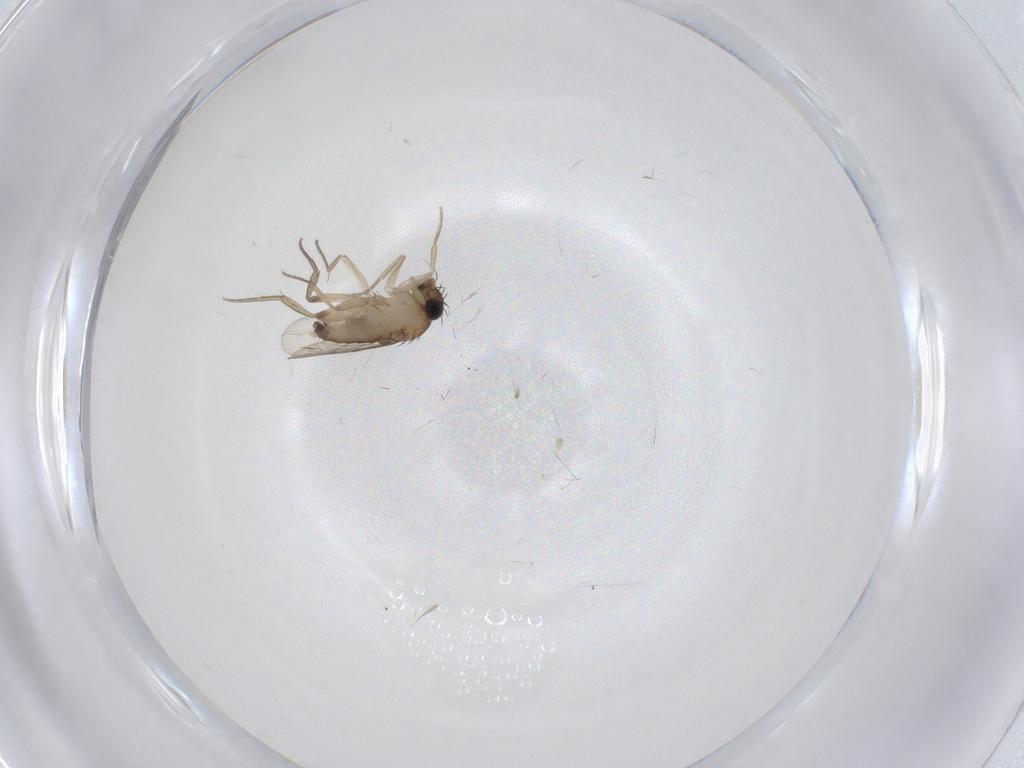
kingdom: Animalia
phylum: Arthropoda
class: Insecta
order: Diptera
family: Phoridae
